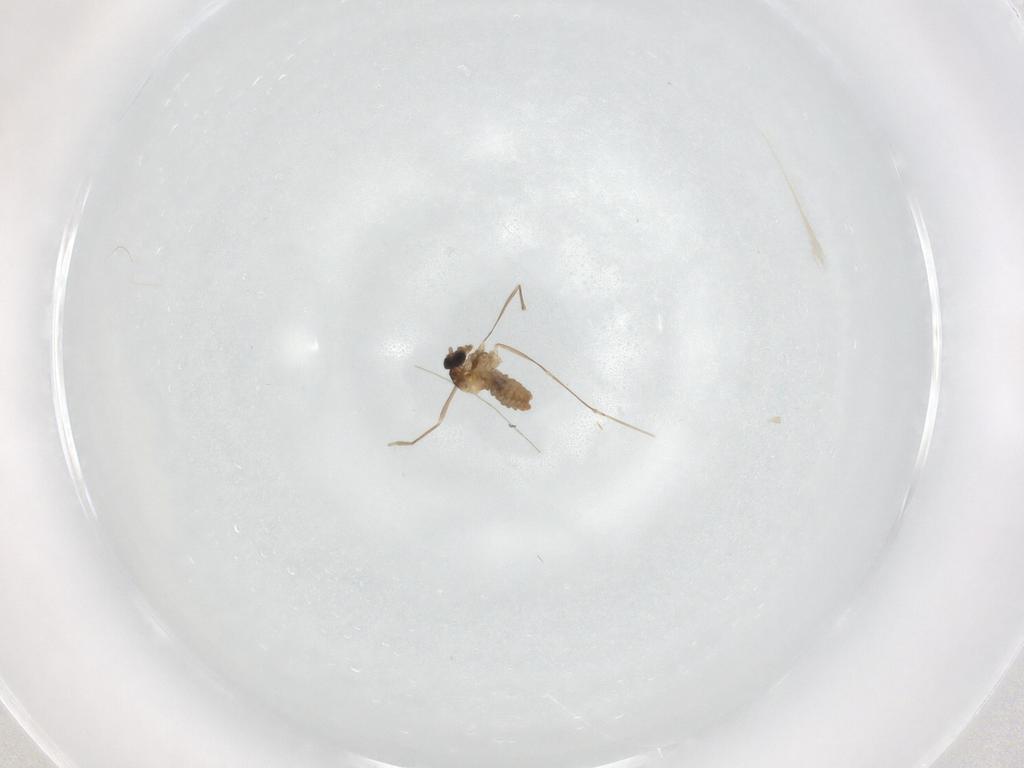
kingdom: Animalia
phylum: Arthropoda
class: Insecta
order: Diptera
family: Cecidomyiidae
